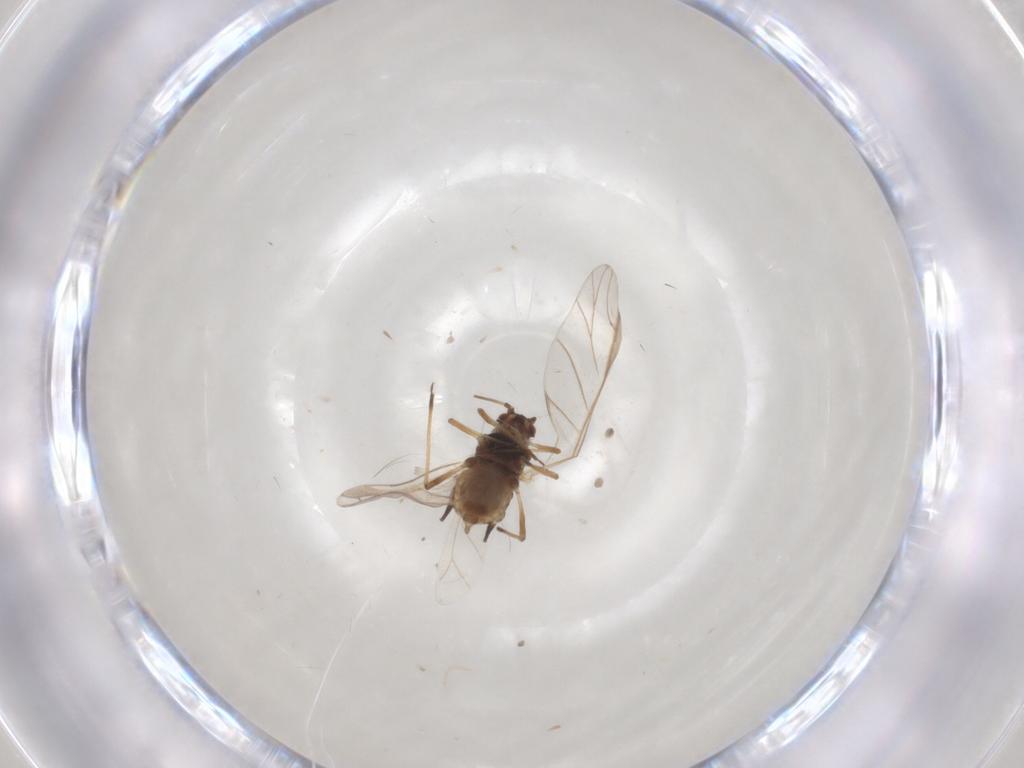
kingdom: Animalia
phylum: Arthropoda
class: Insecta
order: Hemiptera
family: Aphididae
